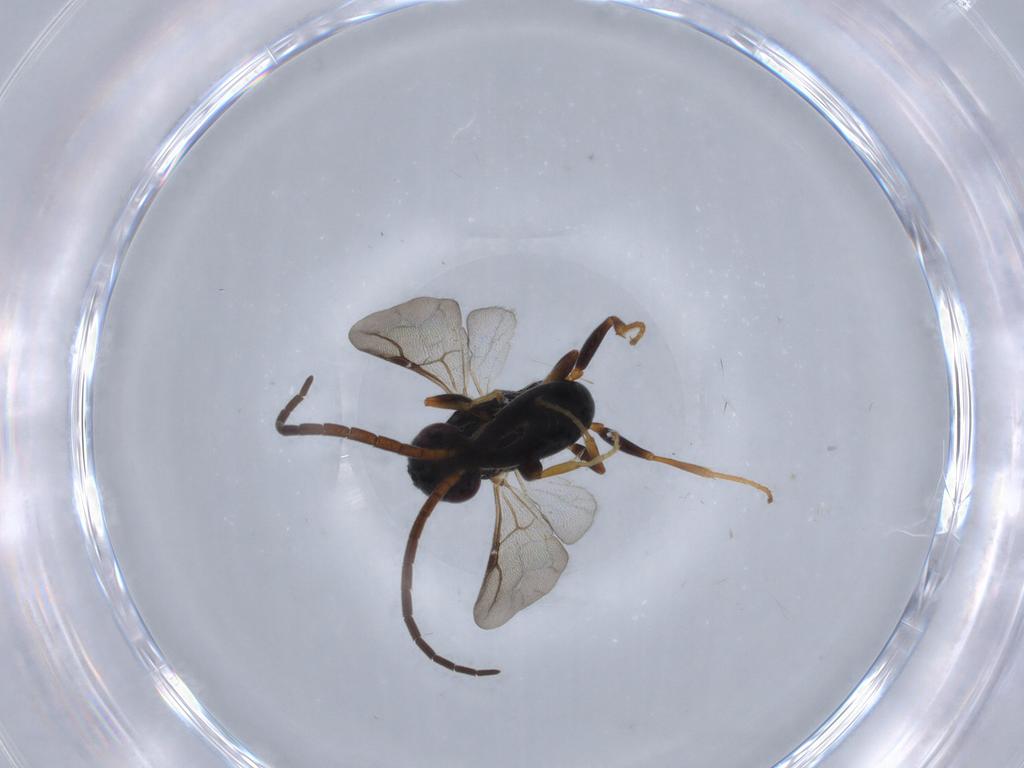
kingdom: Animalia
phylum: Arthropoda
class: Insecta
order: Hymenoptera
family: Bethylidae
